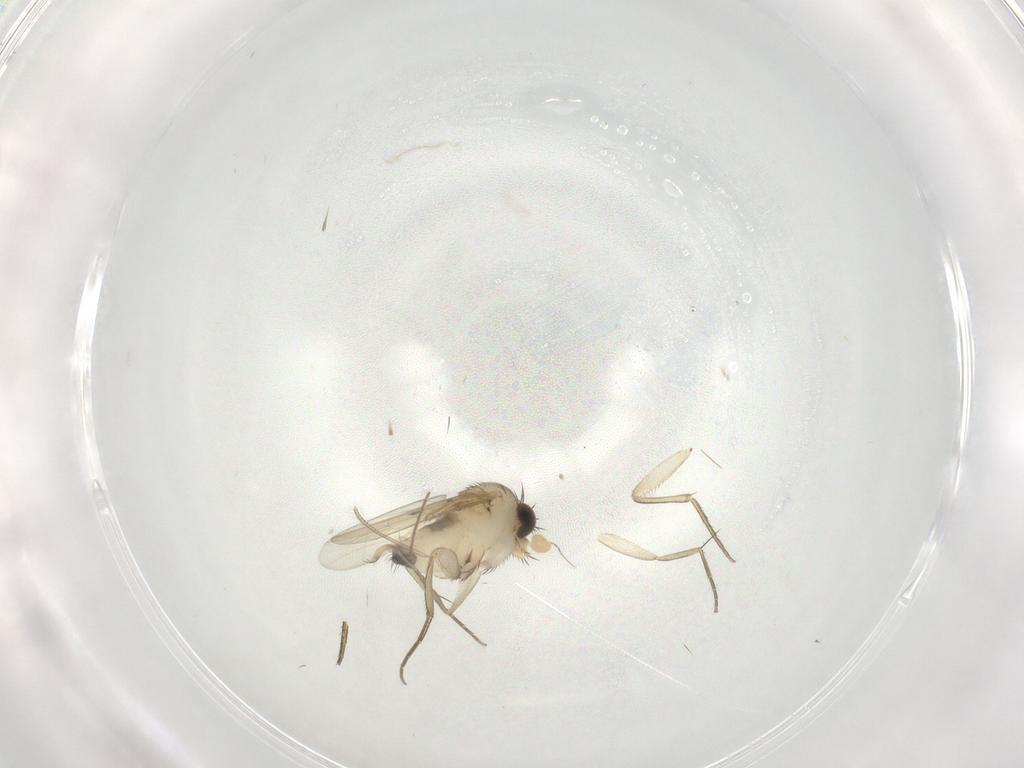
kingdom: Animalia
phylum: Arthropoda
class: Insecta
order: Diptera
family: Phoridae
